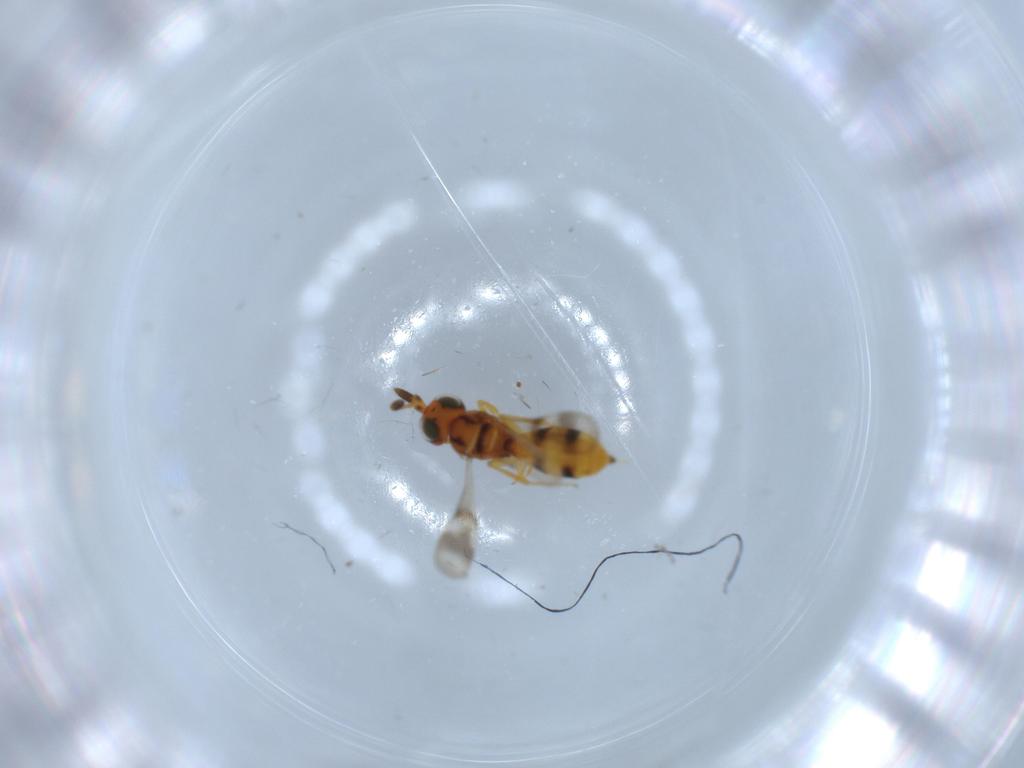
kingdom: Animalia
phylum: Arthropoda
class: Insecta
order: Hymenoptera
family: Scelionidae
